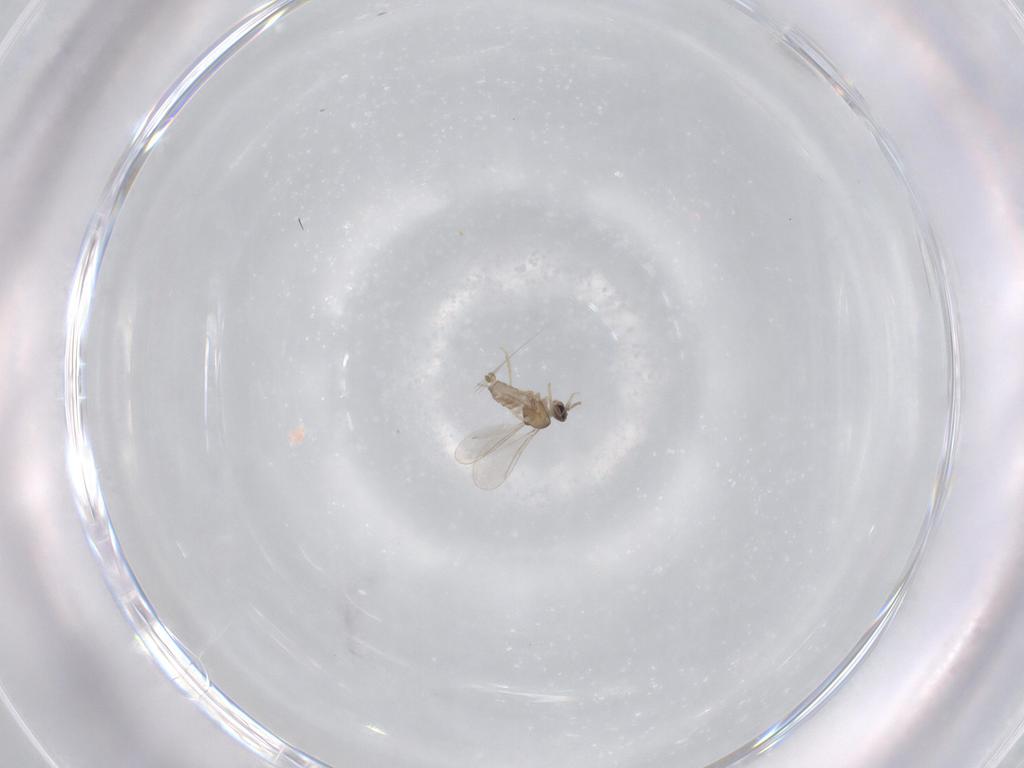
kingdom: Animalia
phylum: Arthropoda
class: Insecta
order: Diptera
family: Cecidomyiidae
